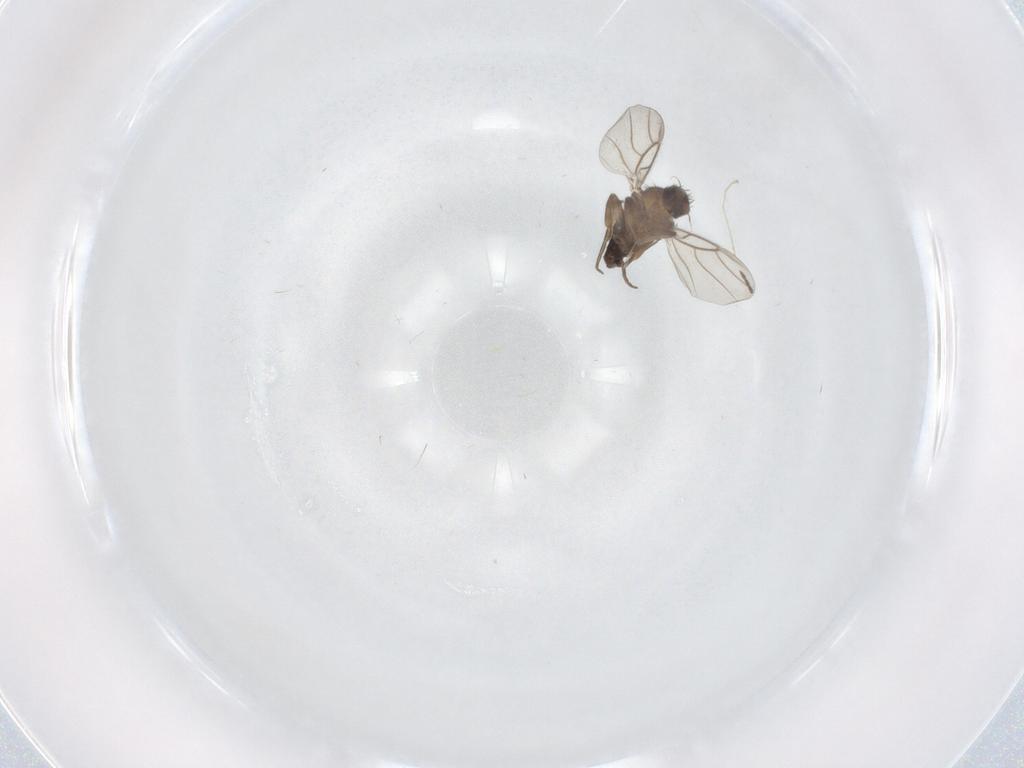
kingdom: Animalia
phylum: Arthropoda
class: Insecta
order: Diptera
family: Sciaridae
